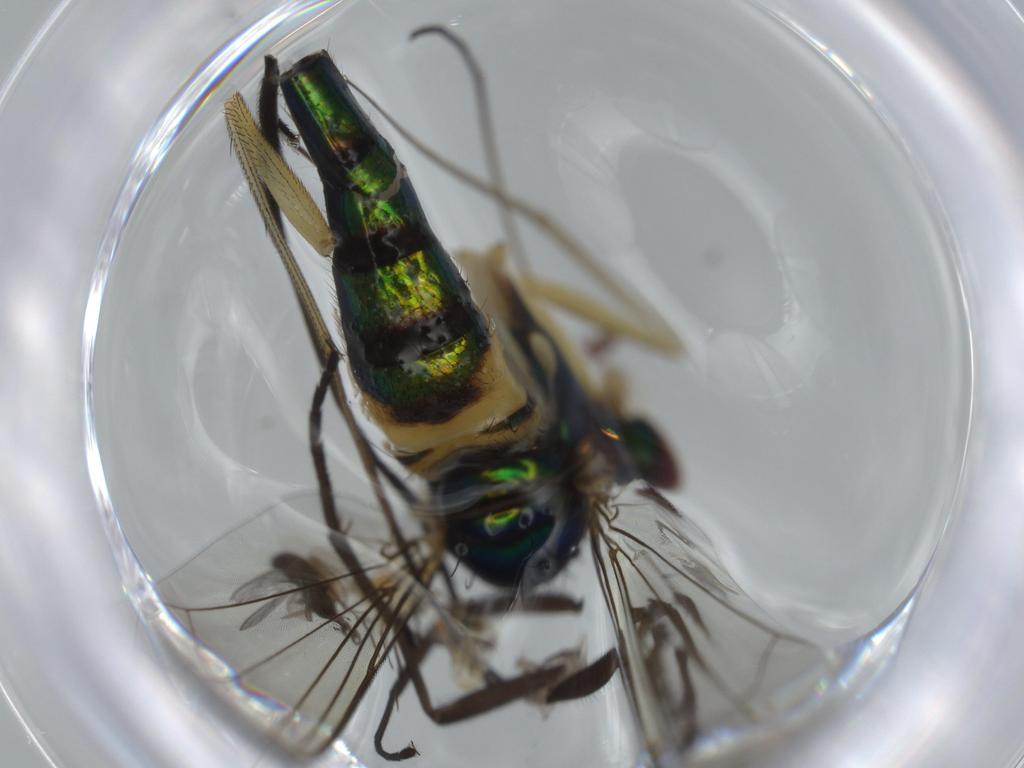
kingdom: Animalia
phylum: Arthropoda
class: Insecta
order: Diptera
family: Dolichopodidae
